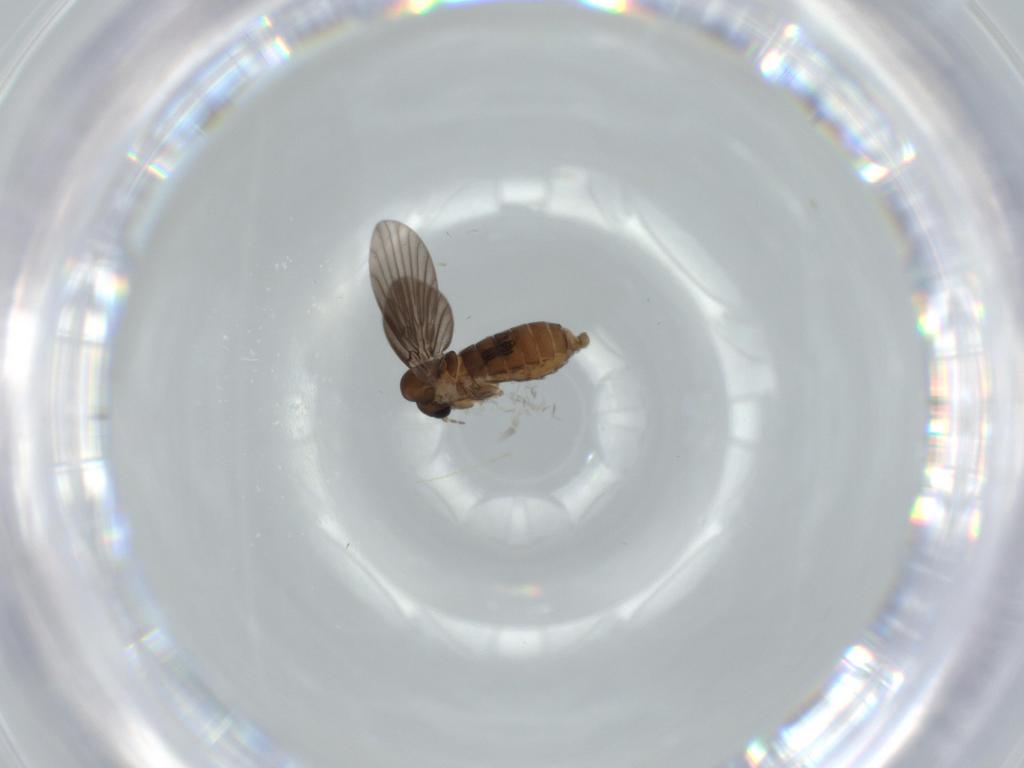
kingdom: Animalia
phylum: Arthropoda
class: Insecta
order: Diptera
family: Psychodidae
